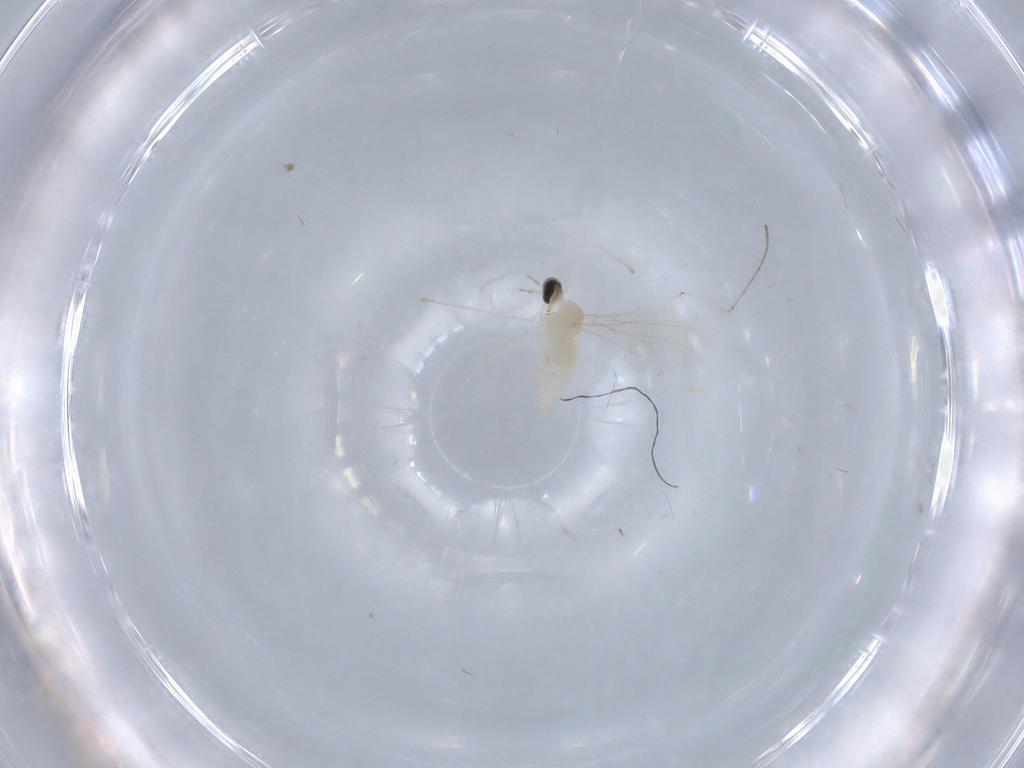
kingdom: Animalia
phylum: Arthropoda
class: Insecta
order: Diptera
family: Cecidomyiidae
